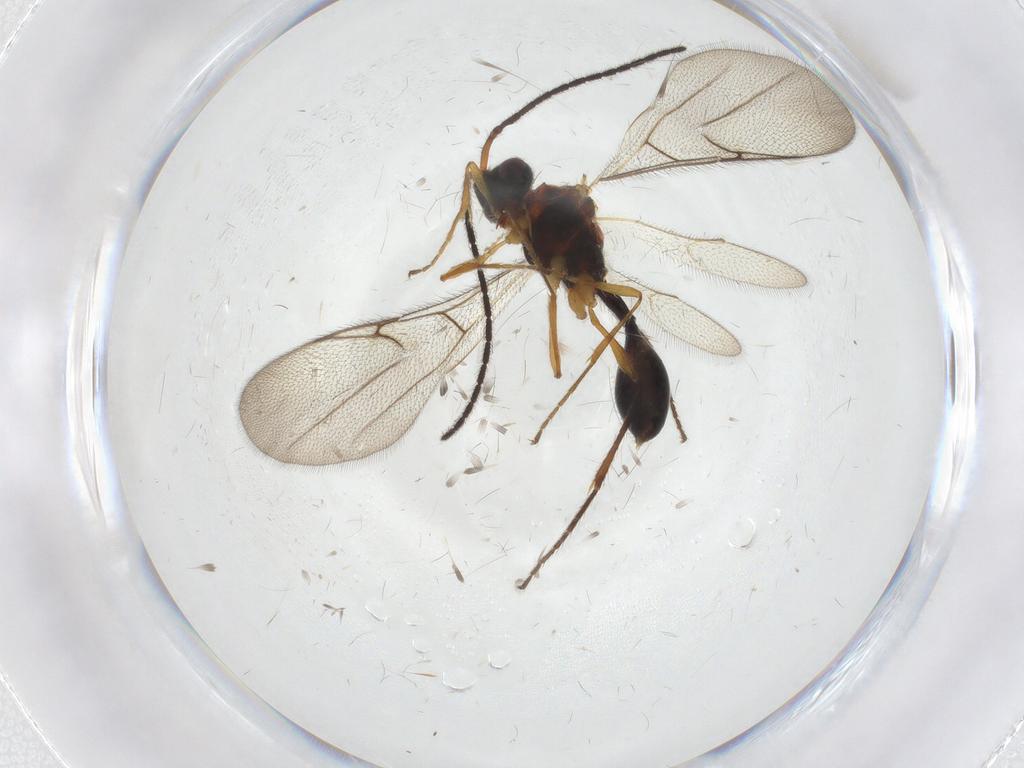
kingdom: Animalia
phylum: Arthropoda
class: Insecta
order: Hymenoptera
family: Diapriidae
